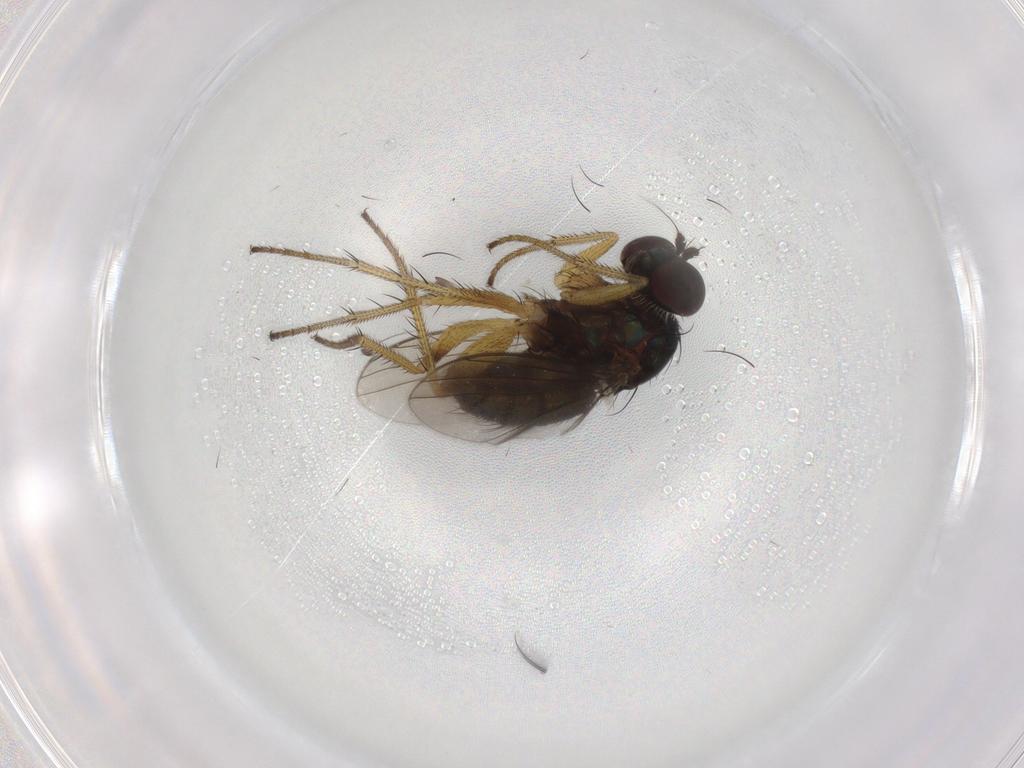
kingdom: Animalia
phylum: Arthropoda
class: Insecta
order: Diptera
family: Dolichopodidae
